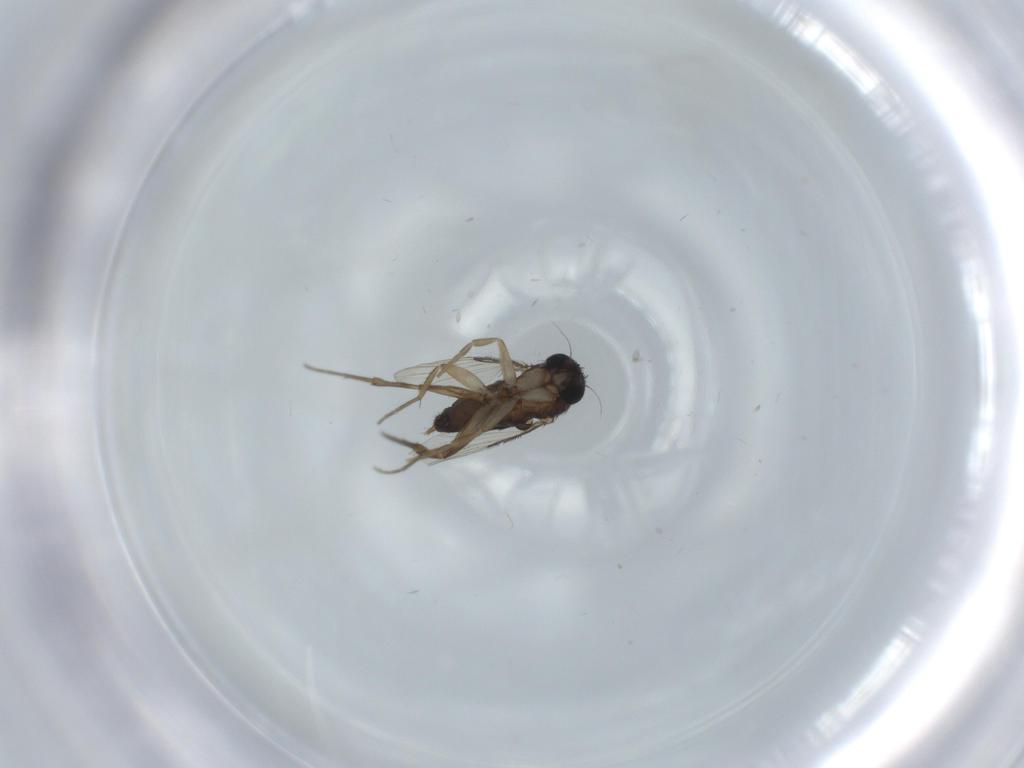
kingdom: Animalia
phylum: Arthropoda
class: Insecta
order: Diptera
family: Phoridae
